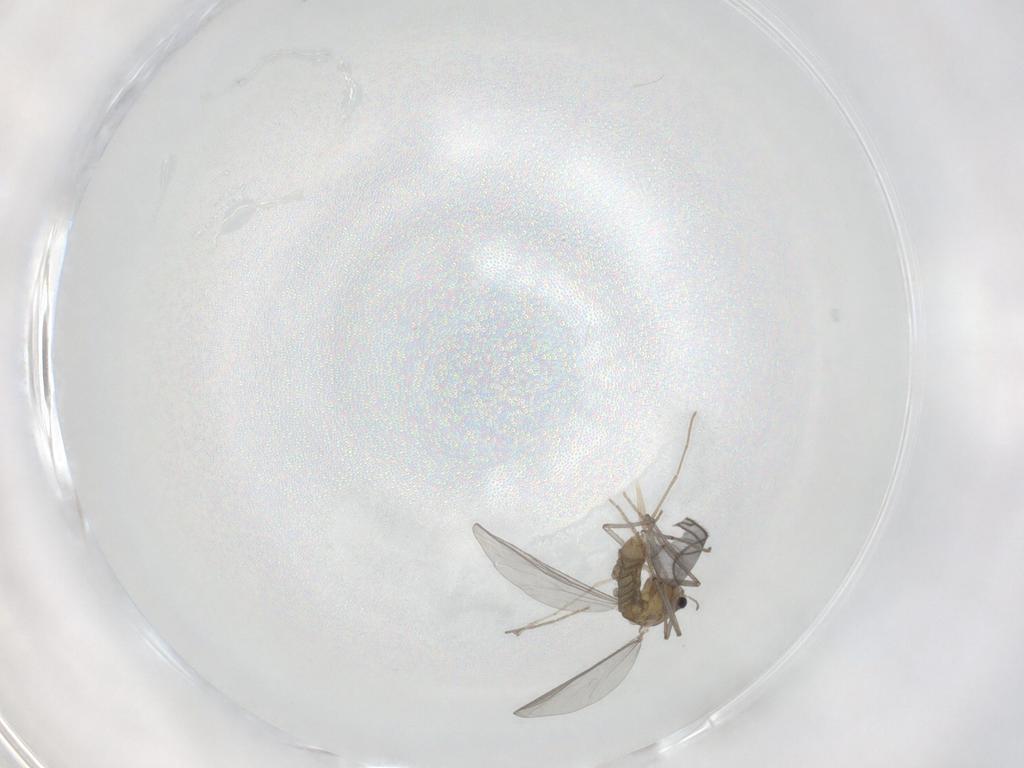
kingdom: Animalia
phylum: Arthropoda
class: Insecta
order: Diptera
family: Chironomidae
